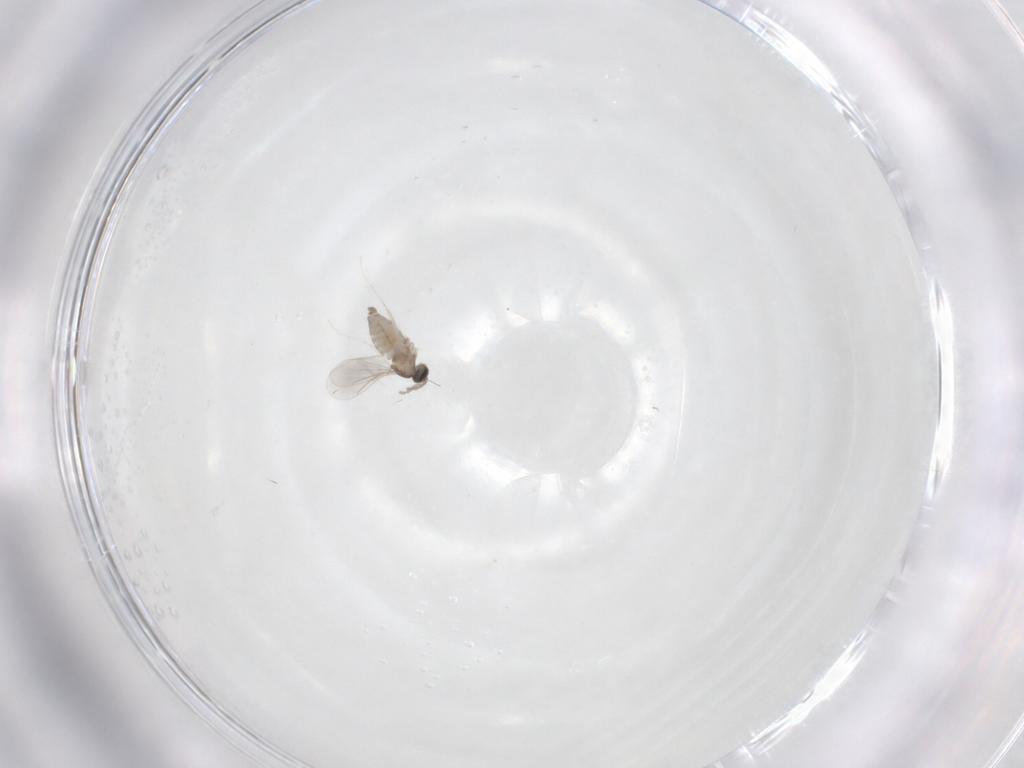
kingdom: Animalia
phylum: Arthropoda
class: Insecta
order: Diptera
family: Cecidomyiidae
